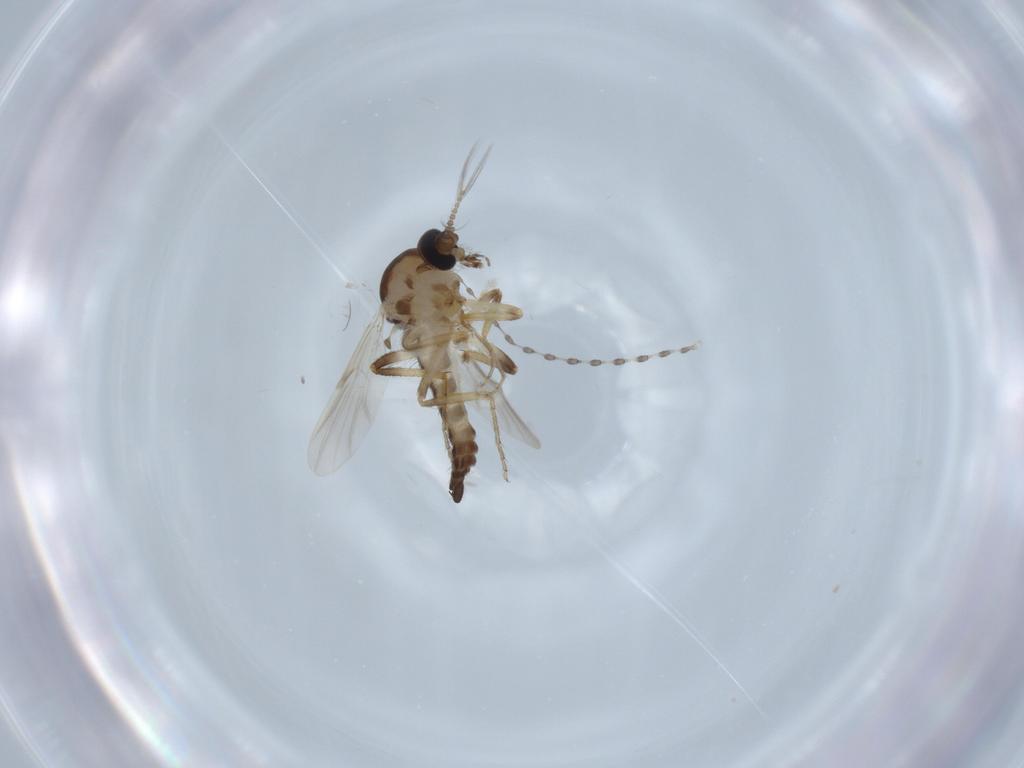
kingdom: Animalia
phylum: Arthropoda
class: Insecta
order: Diptera
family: Ceratopogonidae
